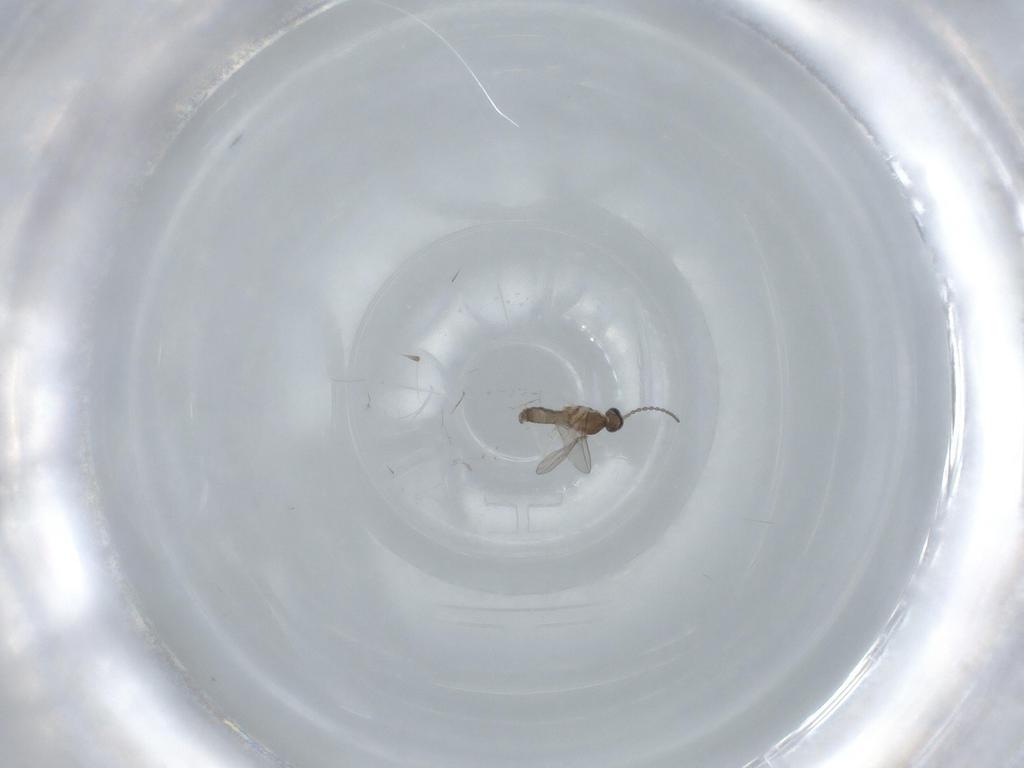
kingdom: Animalia
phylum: Arthropoda
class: Insecta
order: Diptera
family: Cecidomyiidae
